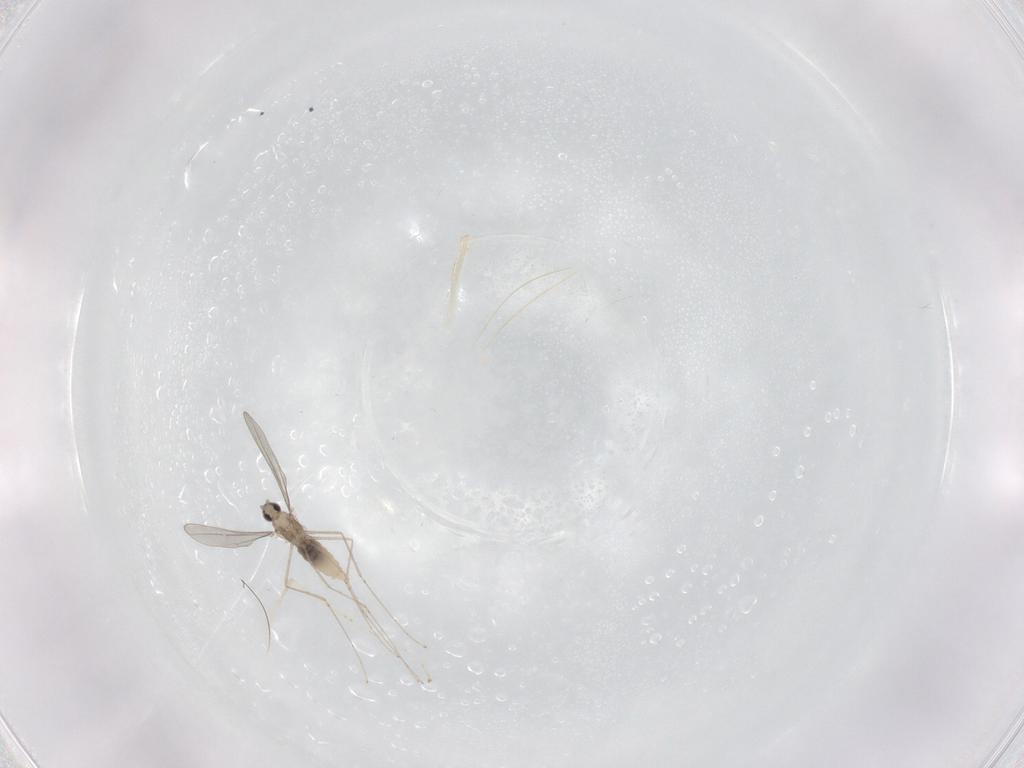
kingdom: Animalia
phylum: Arthropoda
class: Insecta
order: Diptera
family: Cecidomyiidae
